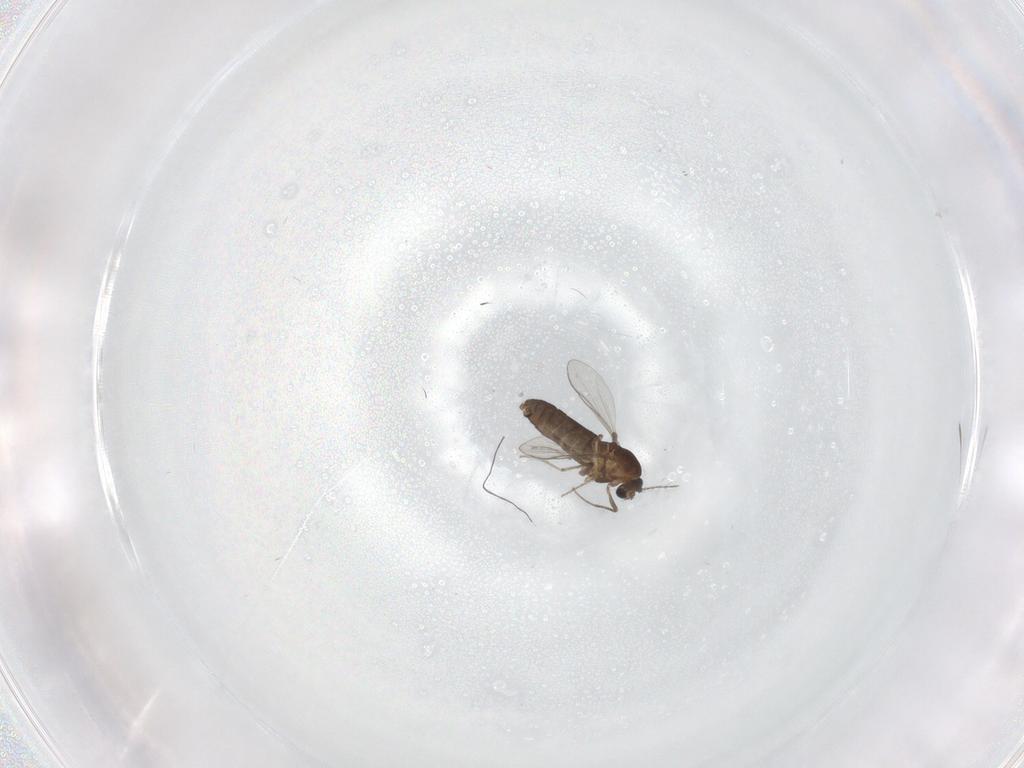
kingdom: Animalia
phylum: Arthropoda
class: Insecta
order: Diptera
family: Chironomidae
